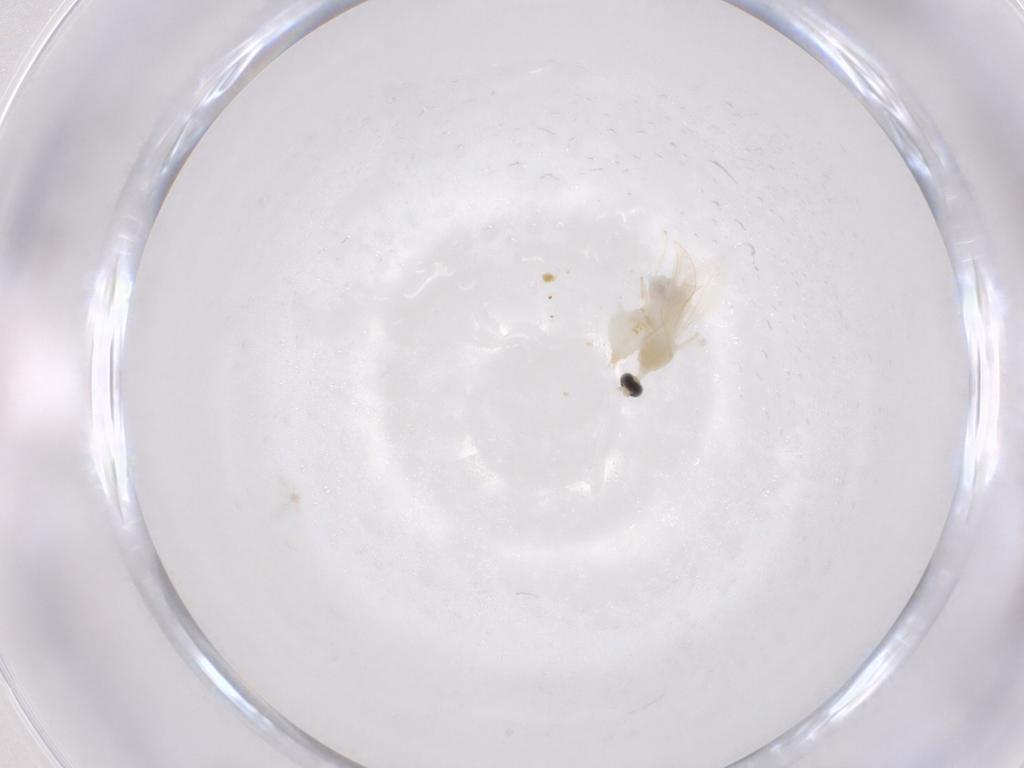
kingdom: Animalia
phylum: Arthropoda
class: Insecta
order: Diptera
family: Cecidomyiidae
